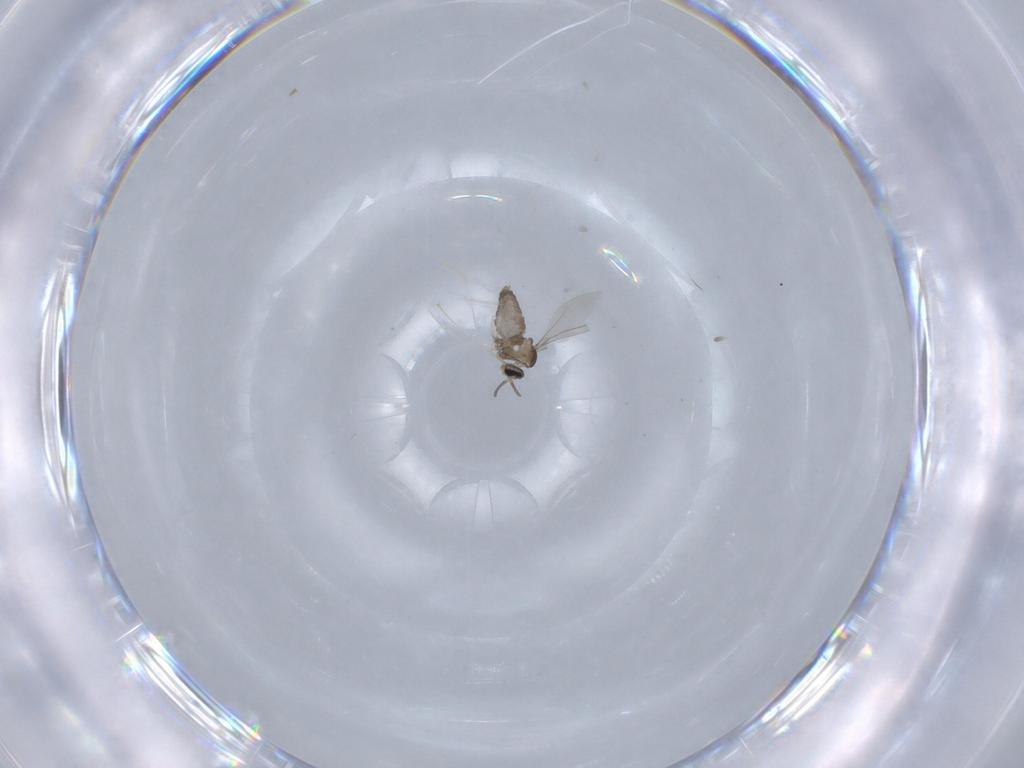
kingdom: Animalia
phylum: Arthropoda
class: Insecta
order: Diptera
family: Cecidomyiidae
